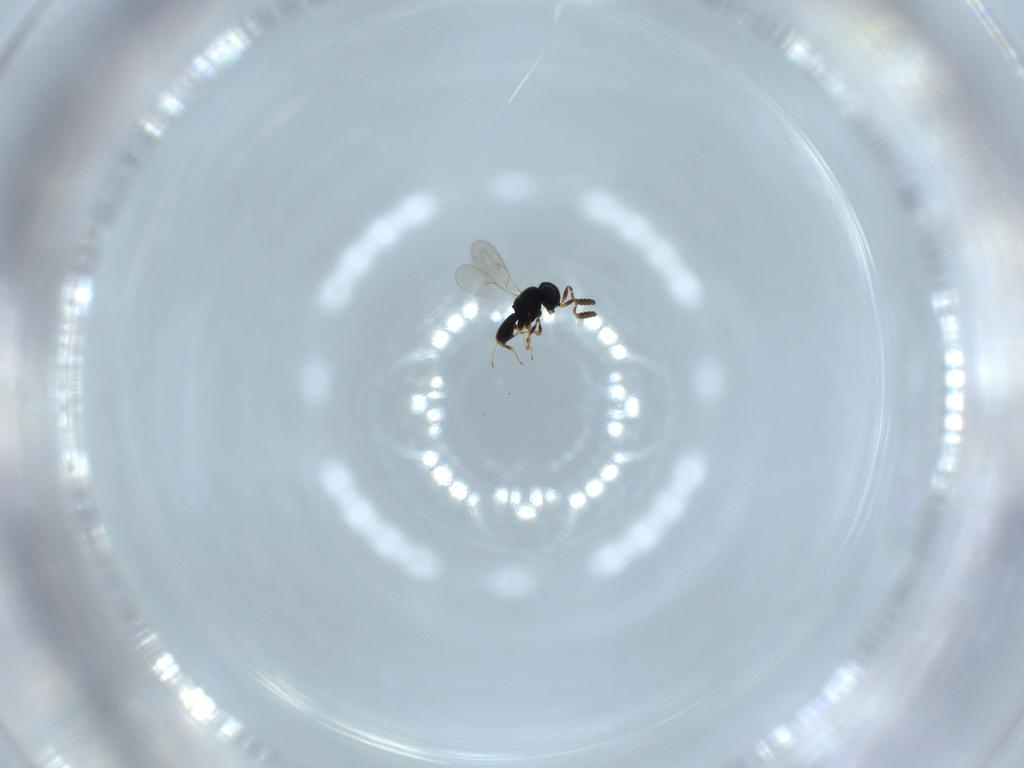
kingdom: Animalia
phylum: Arthropoda
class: Insecta
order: Hymenoptera
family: Scelionidae
